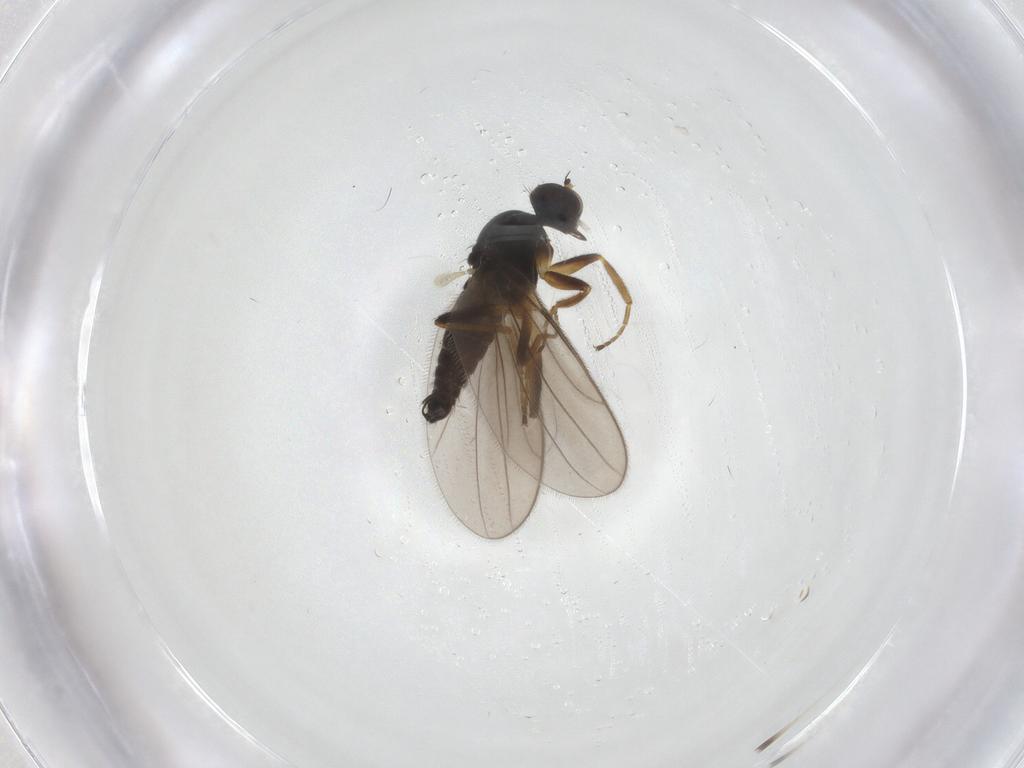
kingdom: Animalia
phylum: Arthropoda
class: Insecta
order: Diptera
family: Hybotidae
